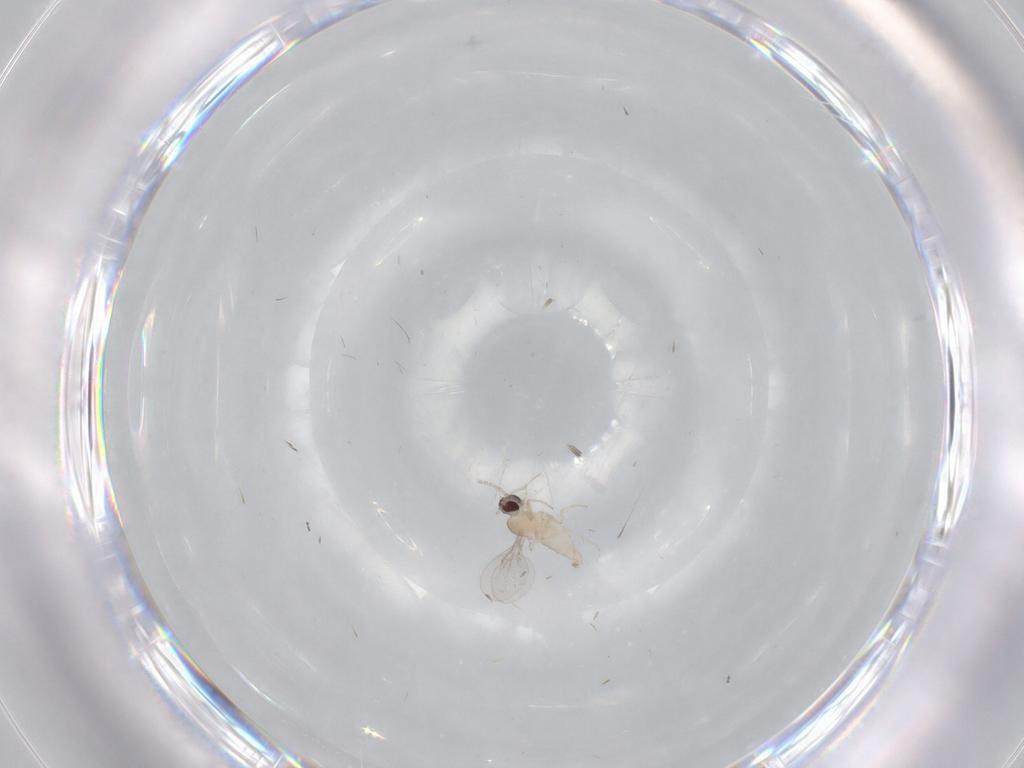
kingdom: Animalia
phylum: Arthropoda
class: Insecta
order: Diptera
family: Cecidomyiidae
